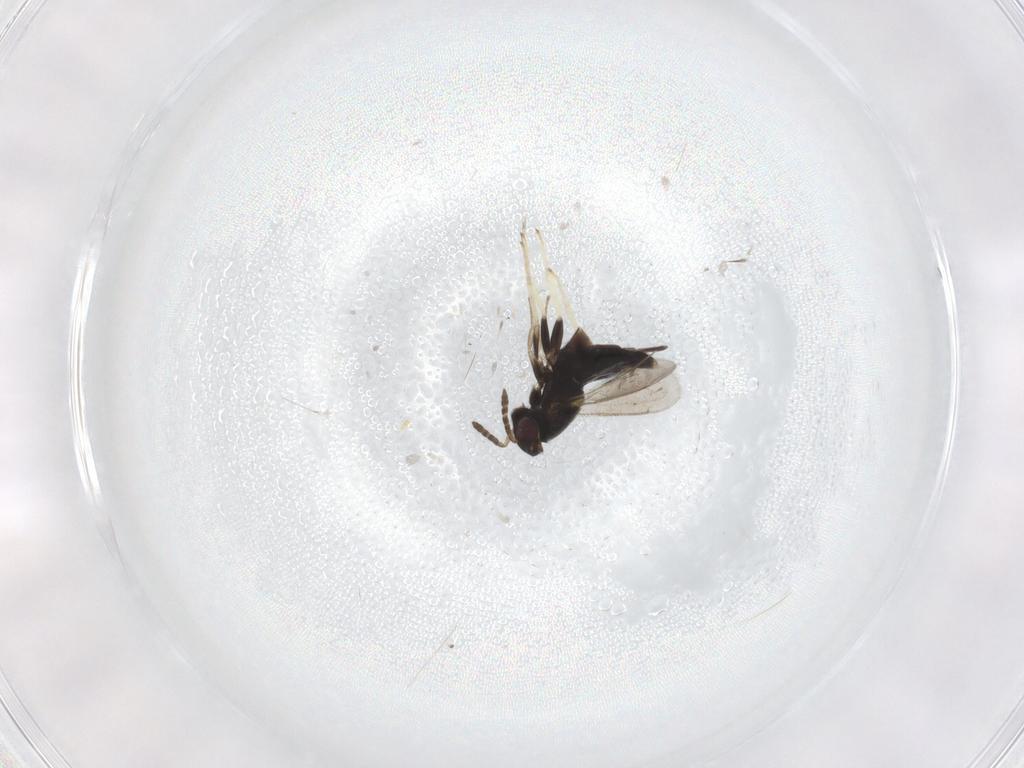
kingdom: Animalia
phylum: Arthropoda
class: Insecta
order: Hymenoptera
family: Aphelinidae
